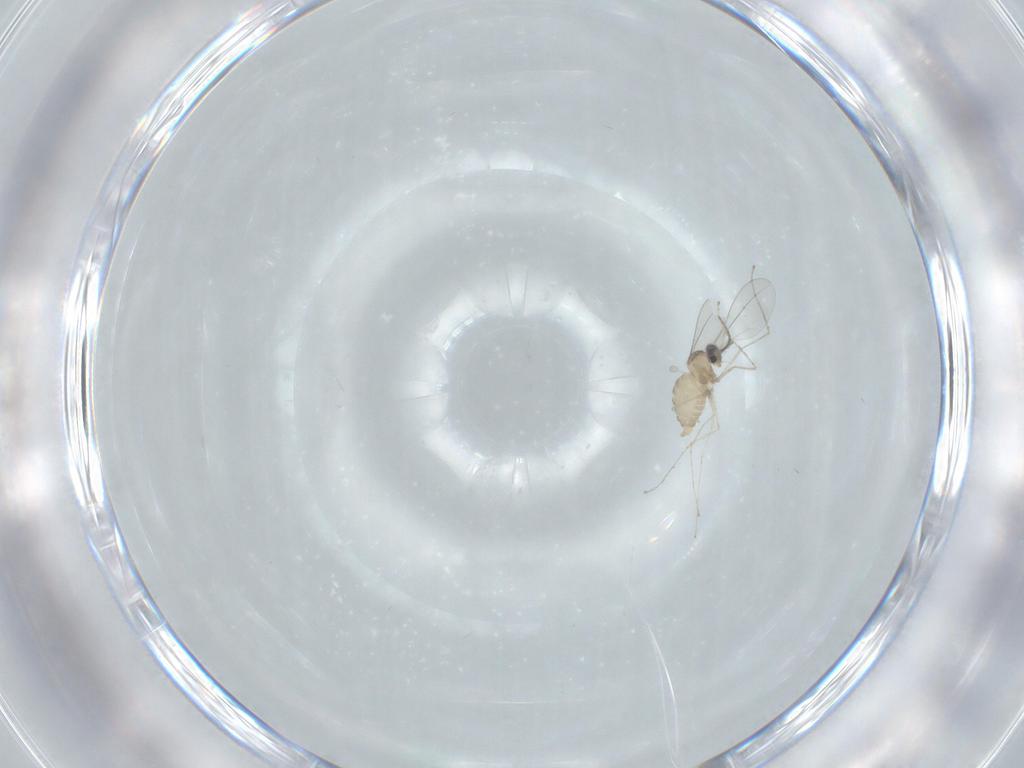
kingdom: Animalia
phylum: Arthropoda
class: Insecta
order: Diptera
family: Ceratopogonidae
